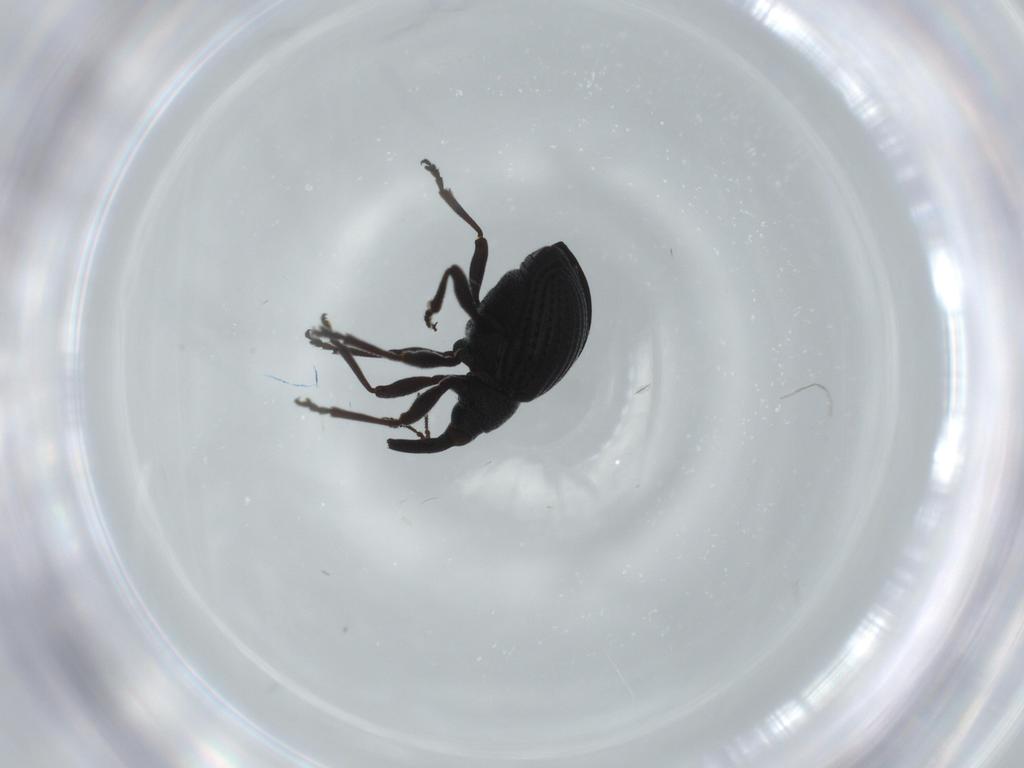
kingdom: Animalia
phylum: Arthropoda
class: Insecta
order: Coleoptera
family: Brentidae
